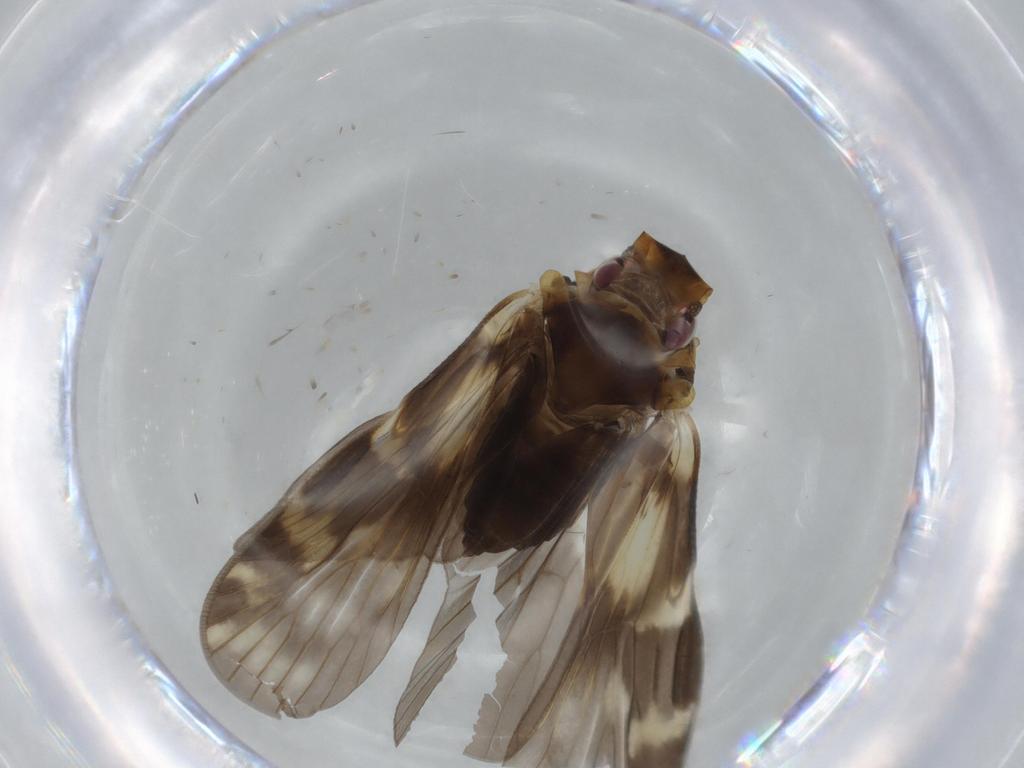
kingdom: Animalia
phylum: Arthropoda
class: Insecta
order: Hemiptera
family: Cixiidae
